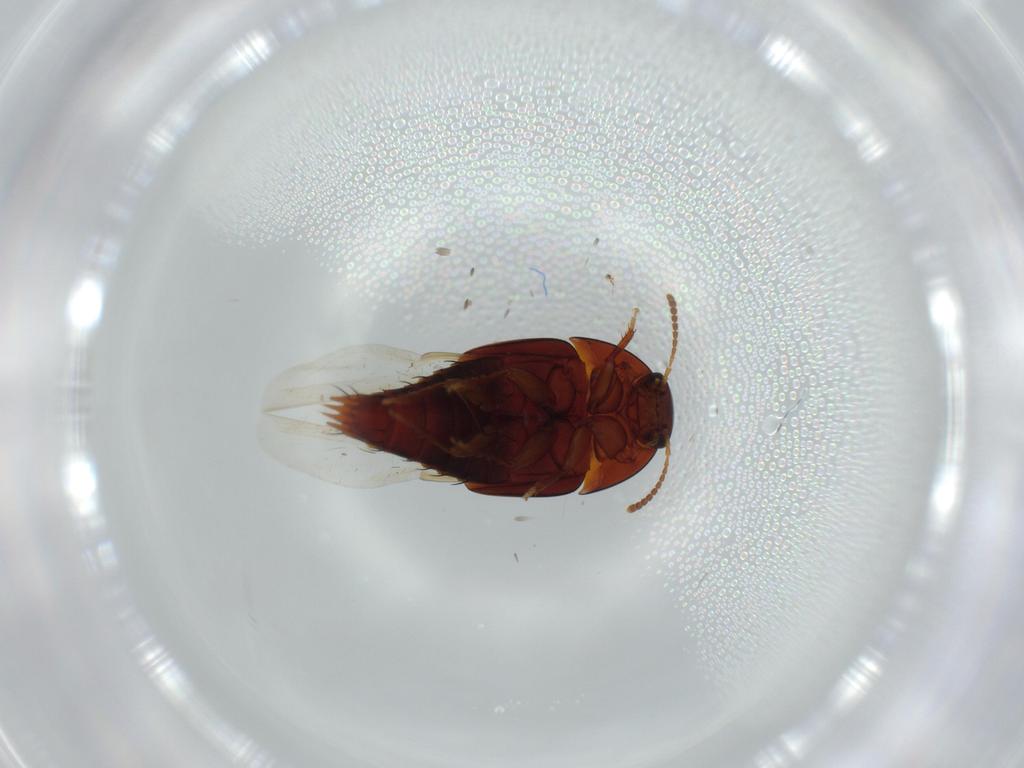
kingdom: Animalia
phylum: Arthropoda
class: Insecta
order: Coleoptera
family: Staphylinidae
